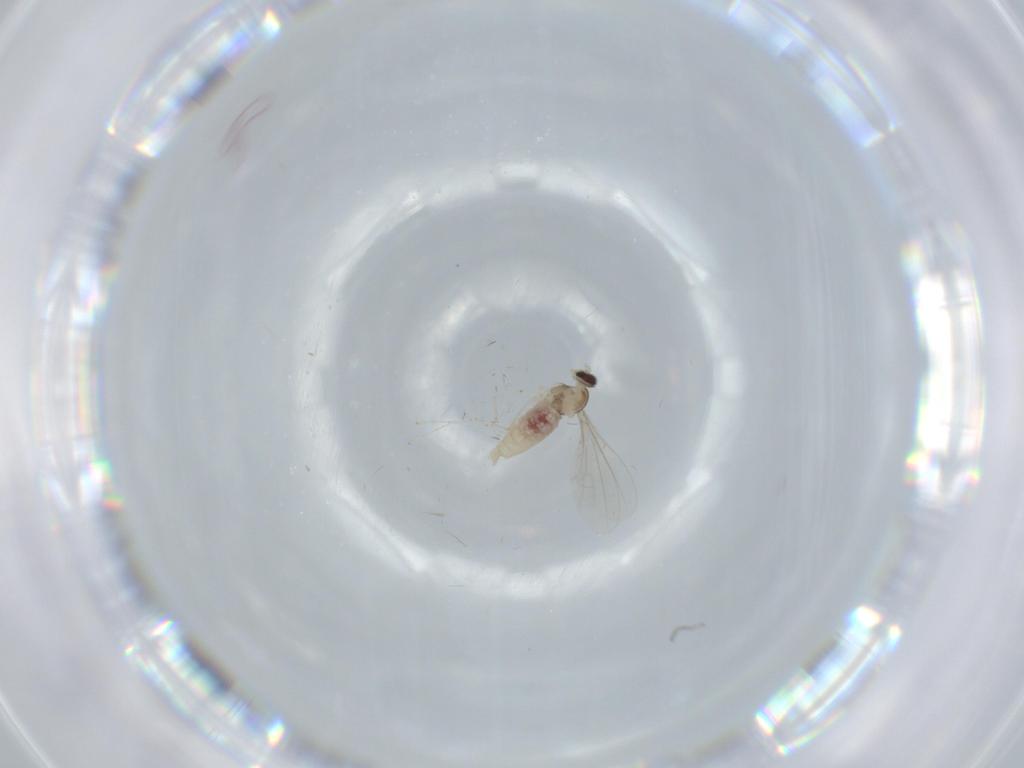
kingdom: Animalia
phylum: Arthropoda
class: Insecta
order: Diptera
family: Cecidomyiidae
